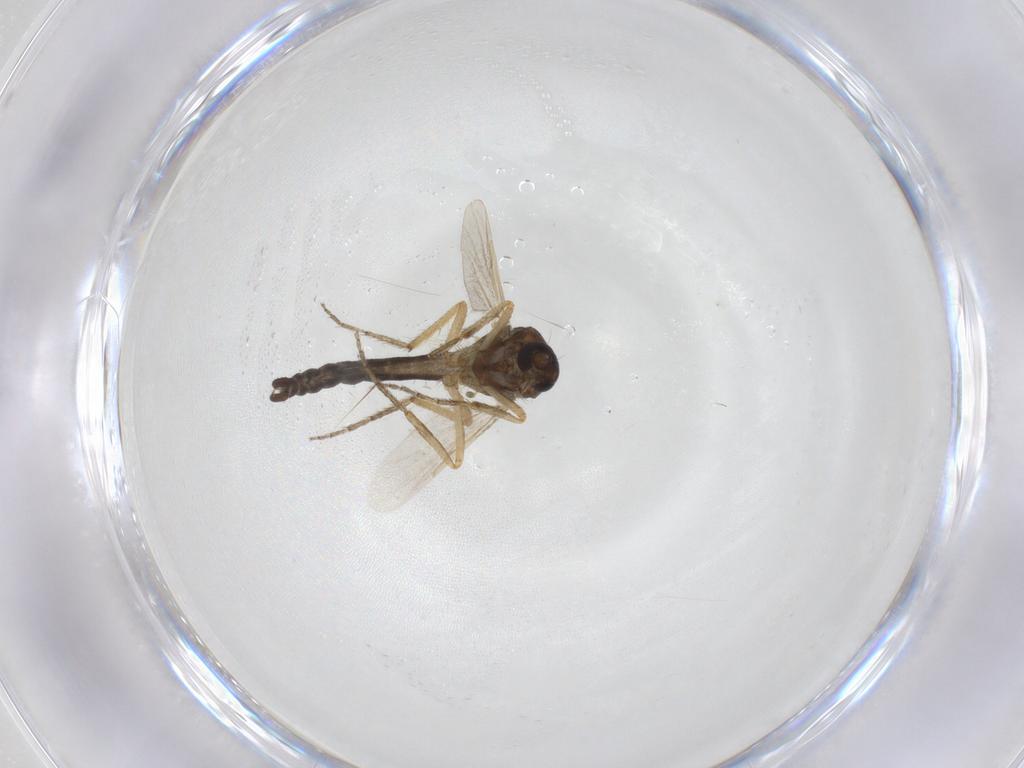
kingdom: Animalia
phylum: Arthropoda
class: Insecta
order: Diptera
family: Ceratopogonidae
